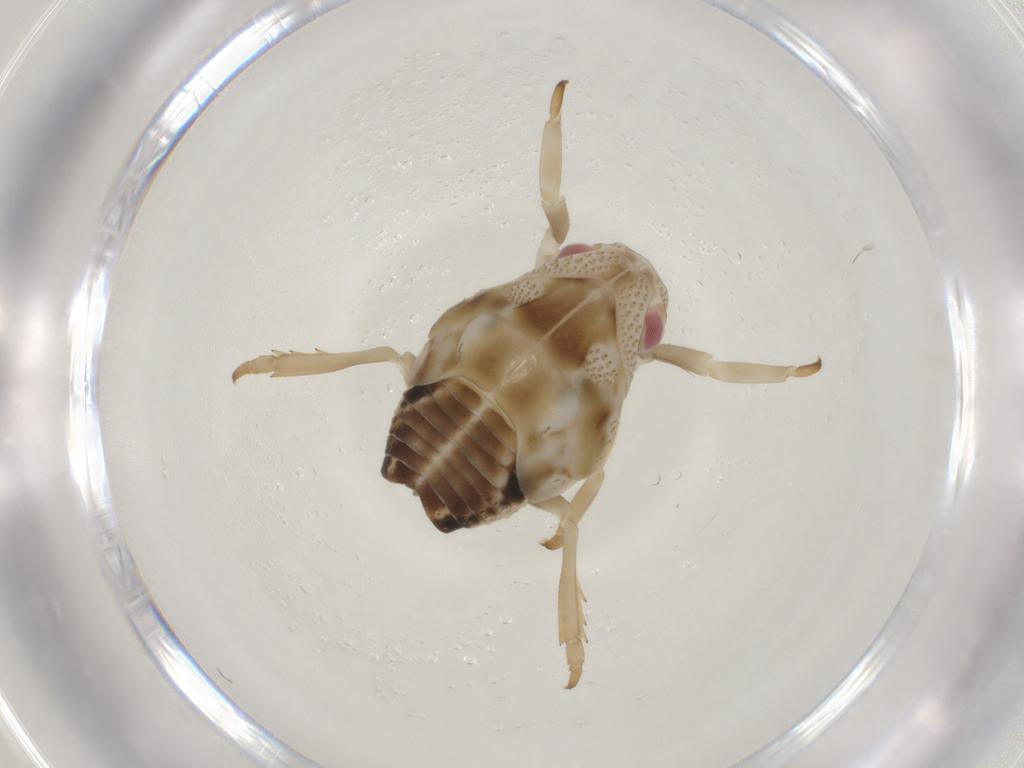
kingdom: Animalia
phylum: Arthropoda
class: Insecta
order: Hemiptera
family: Flatidae
